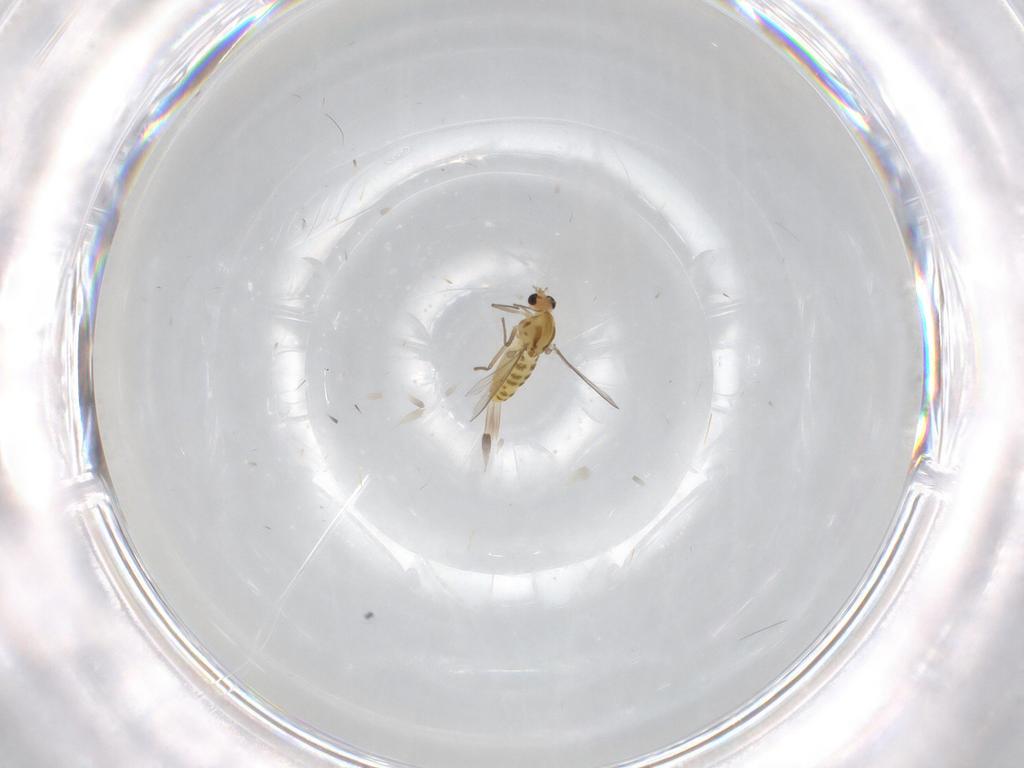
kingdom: Animalia
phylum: Arthropoda
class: Insecta
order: Diptera
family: Chironomidae
